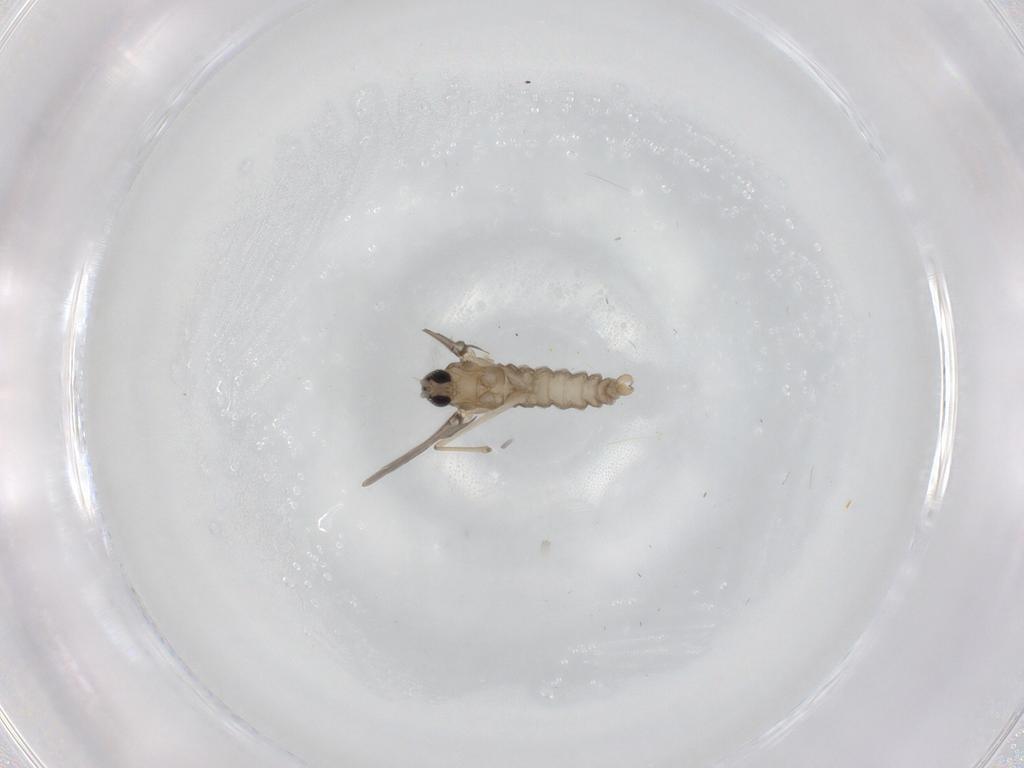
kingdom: Animalia
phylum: Arthropoda
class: Insecta
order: Diptera
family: Cecidomyiidae
